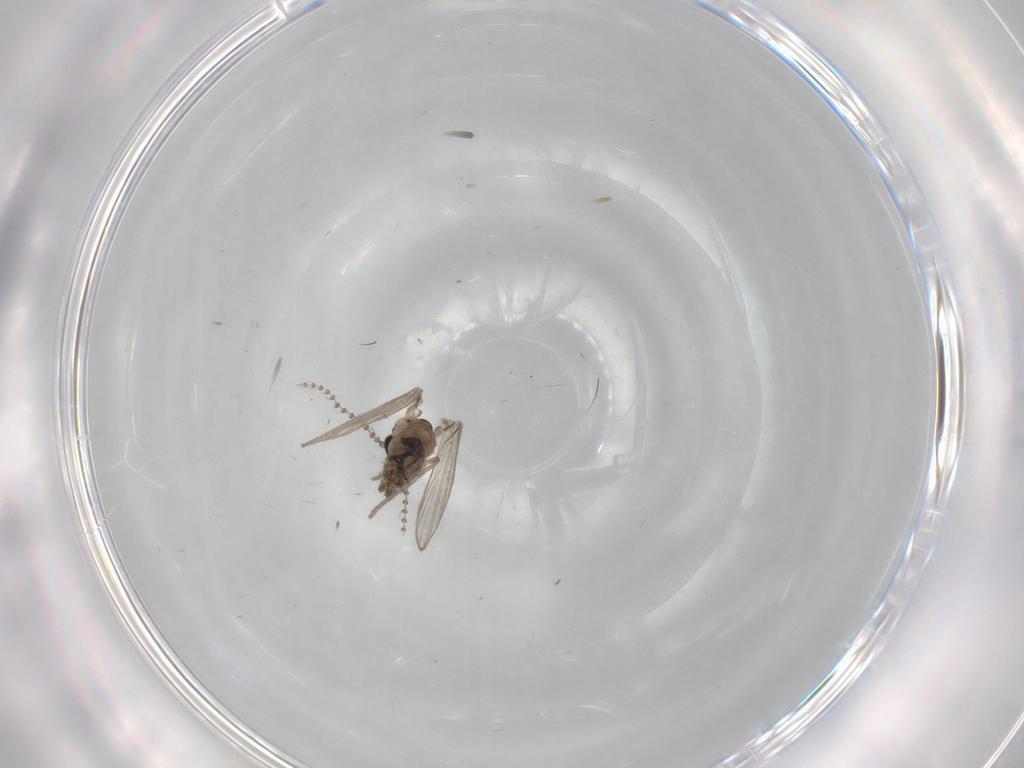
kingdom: Animalia
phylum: Arthropoda
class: Insecta
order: Diptera
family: Psychodidae
